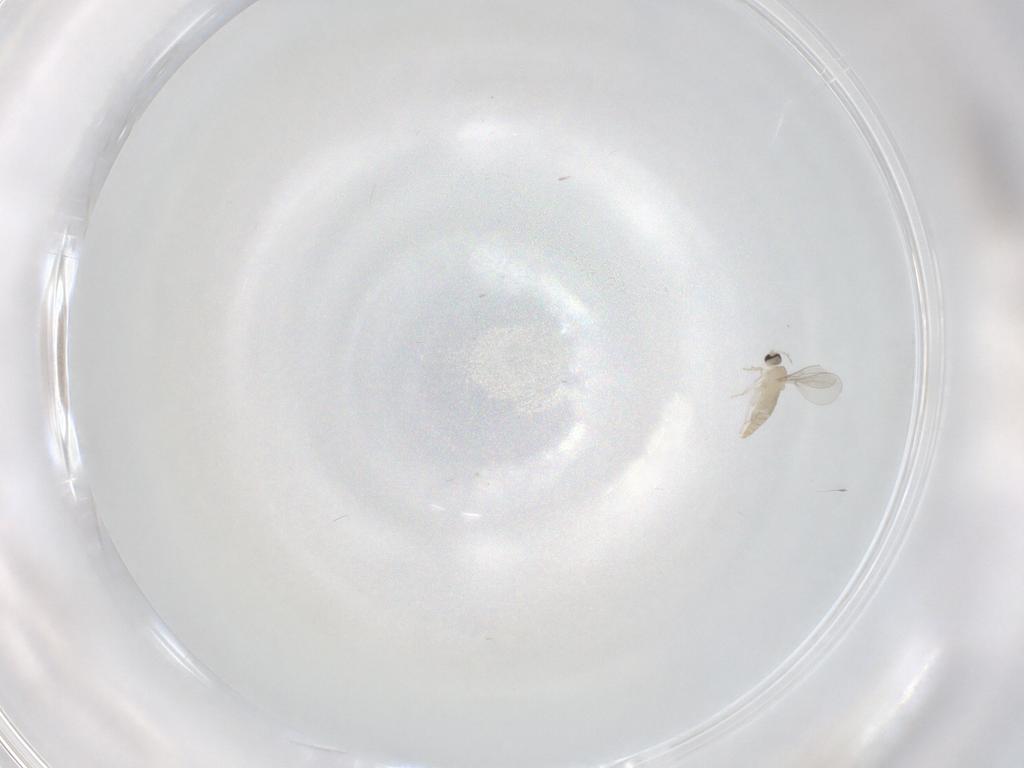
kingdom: Animalia
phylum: Arthropoda
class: Insecta
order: Diptera
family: Cecidomyiidae
